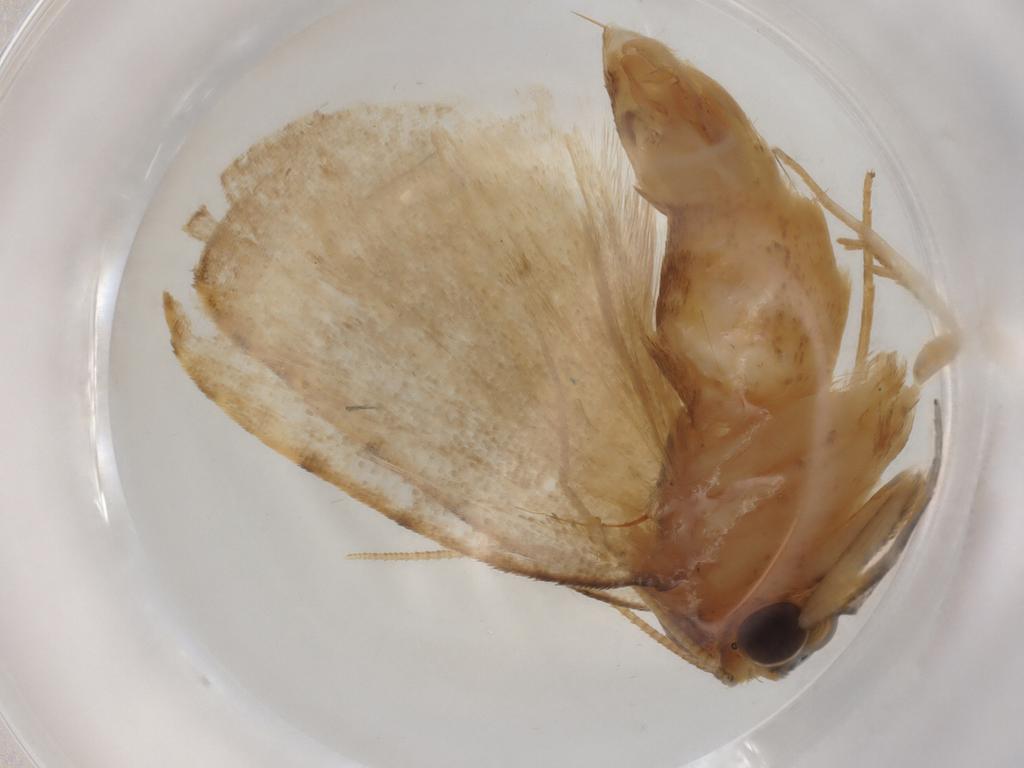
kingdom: Animalia
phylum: Arthropoda
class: Insecta
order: Lepidoptera
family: Erebidae
